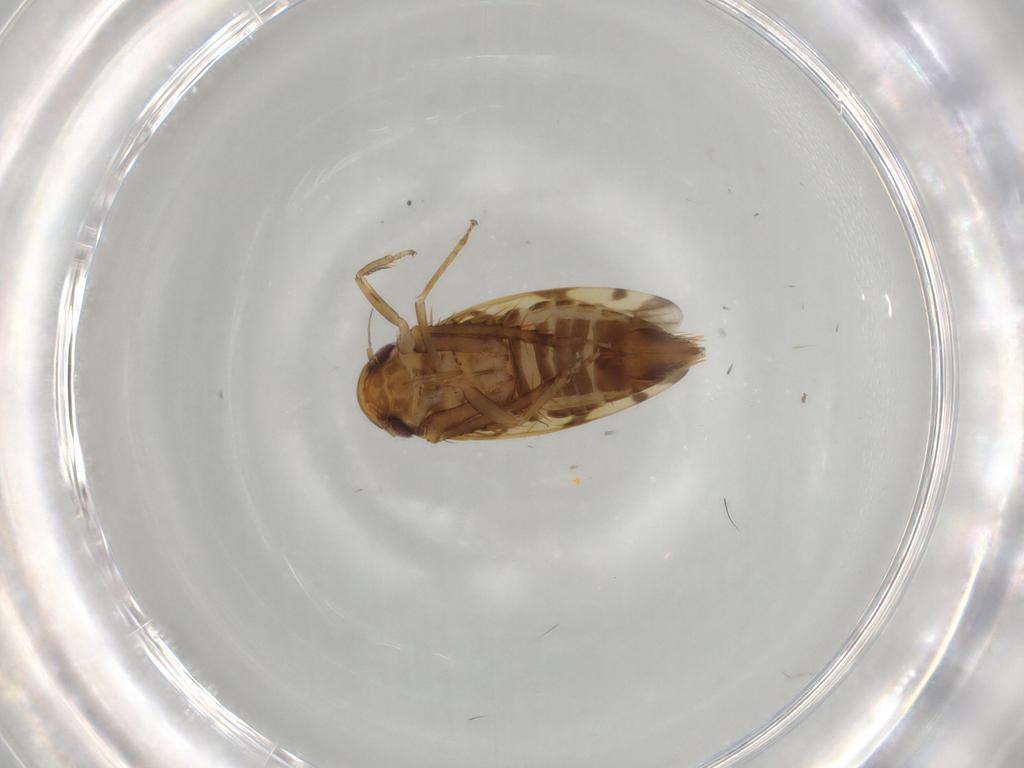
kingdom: Animalia
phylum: Arthropoda
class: Insecta
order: Hemiptera
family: Cicadellidae
